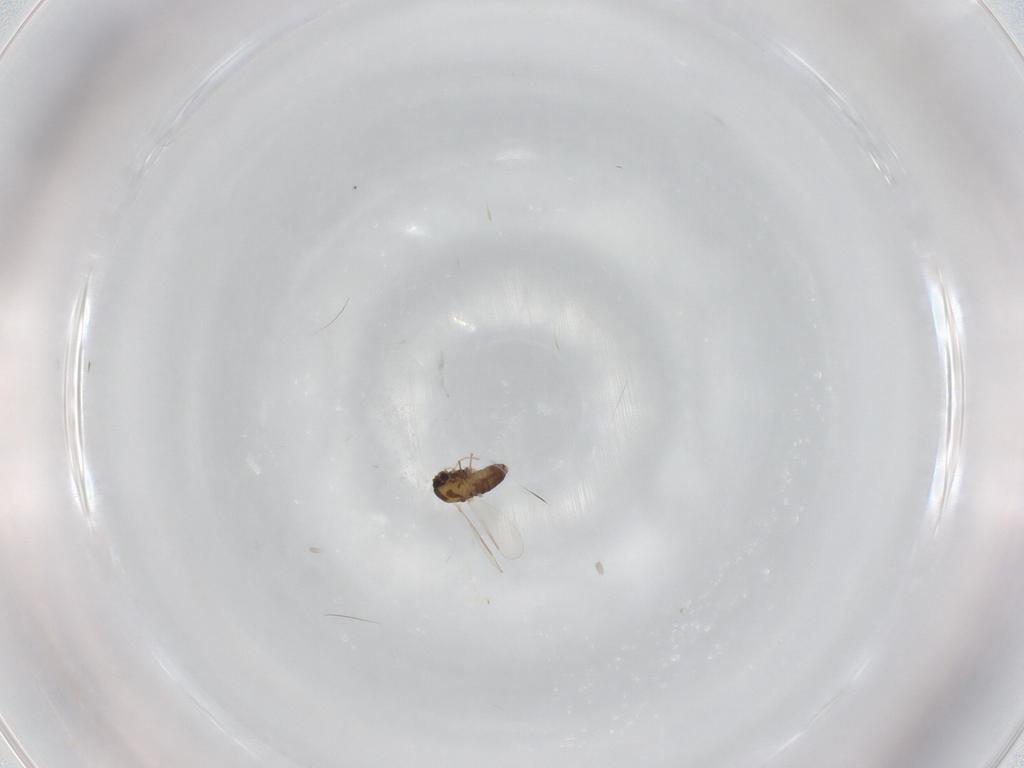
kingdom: Animalia
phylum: Arthropoda
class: Insecta
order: Diptera
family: Chironomidae
